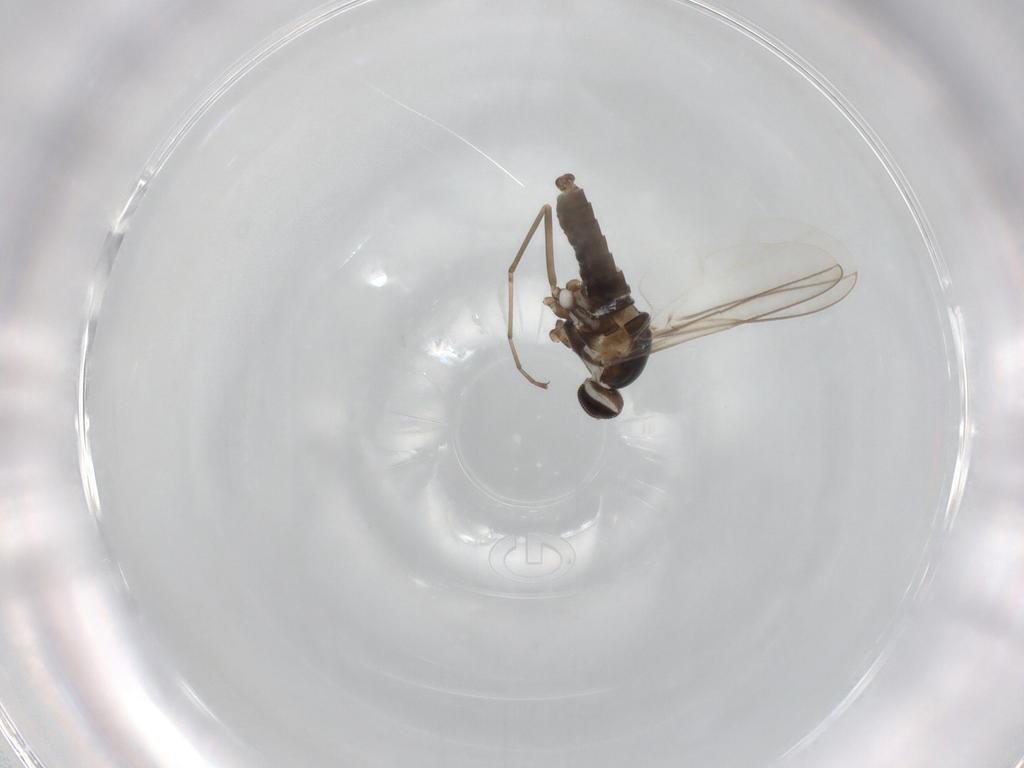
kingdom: Animalia
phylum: Arthropoda
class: Insecta
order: Diptera
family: Cecidomyiidae
